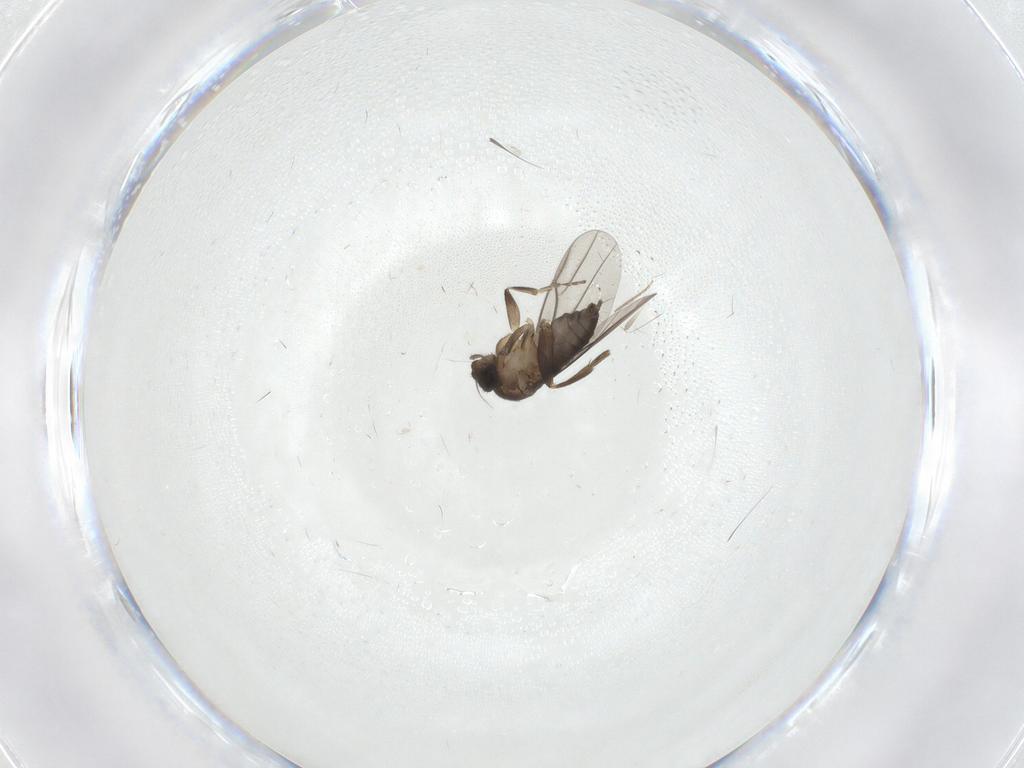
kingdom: Animalia
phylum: Arthropoda
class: Insecta
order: Diptera
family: Cecidomyiidae
